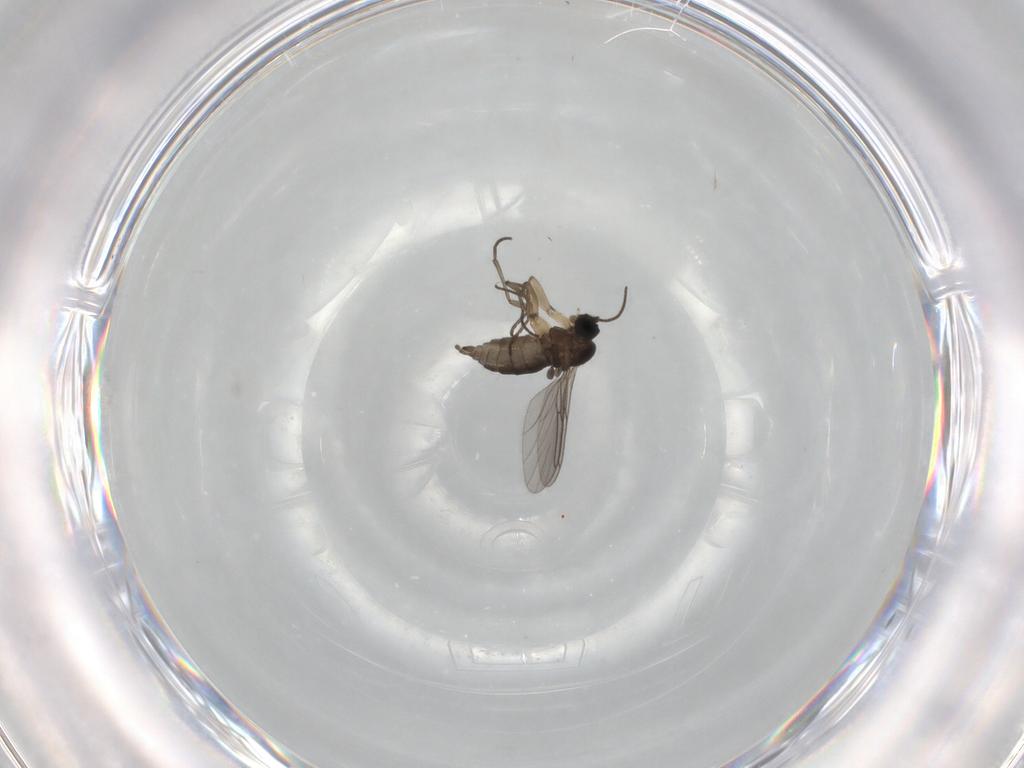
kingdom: Animalia
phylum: Arthropoda
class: Insecta
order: Diptera
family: Sciaridae
